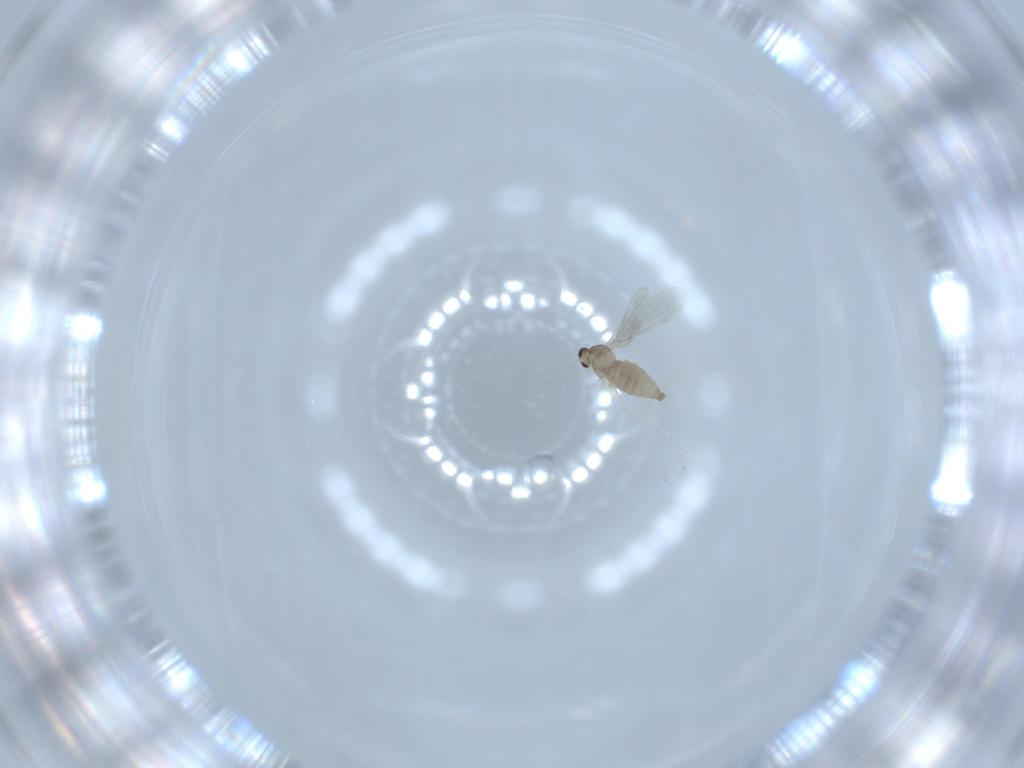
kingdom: Animalia
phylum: Arthropoda
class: Insecta
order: Diptera
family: Cecidomyiidae
